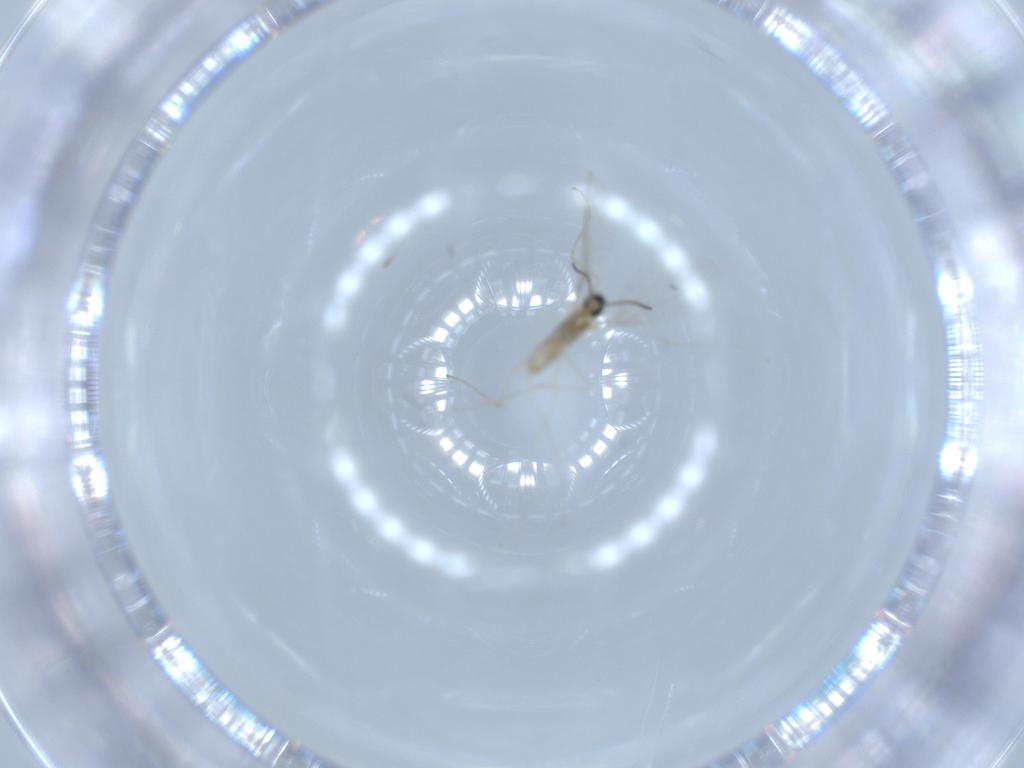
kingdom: Animalia
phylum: Arthropoda
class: Insecta
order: Diptera
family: Cecidomyiidae
